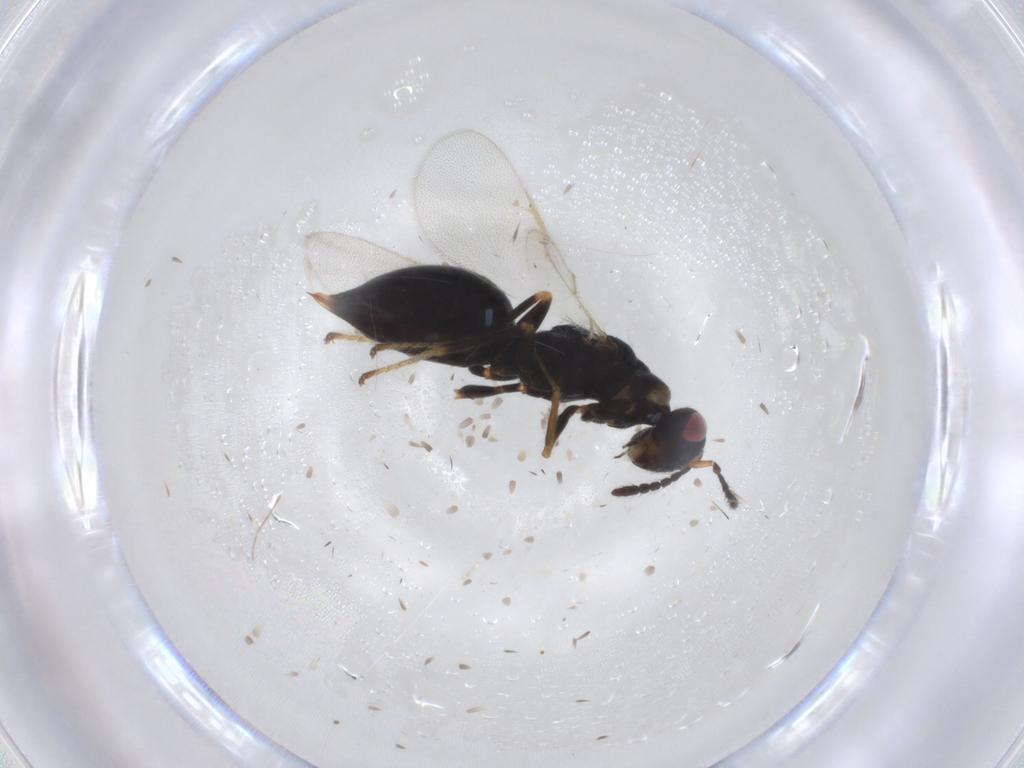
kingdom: Animalia
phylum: Arthropoda
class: Insecta
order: Hymenoptera
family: Eurytomidae
